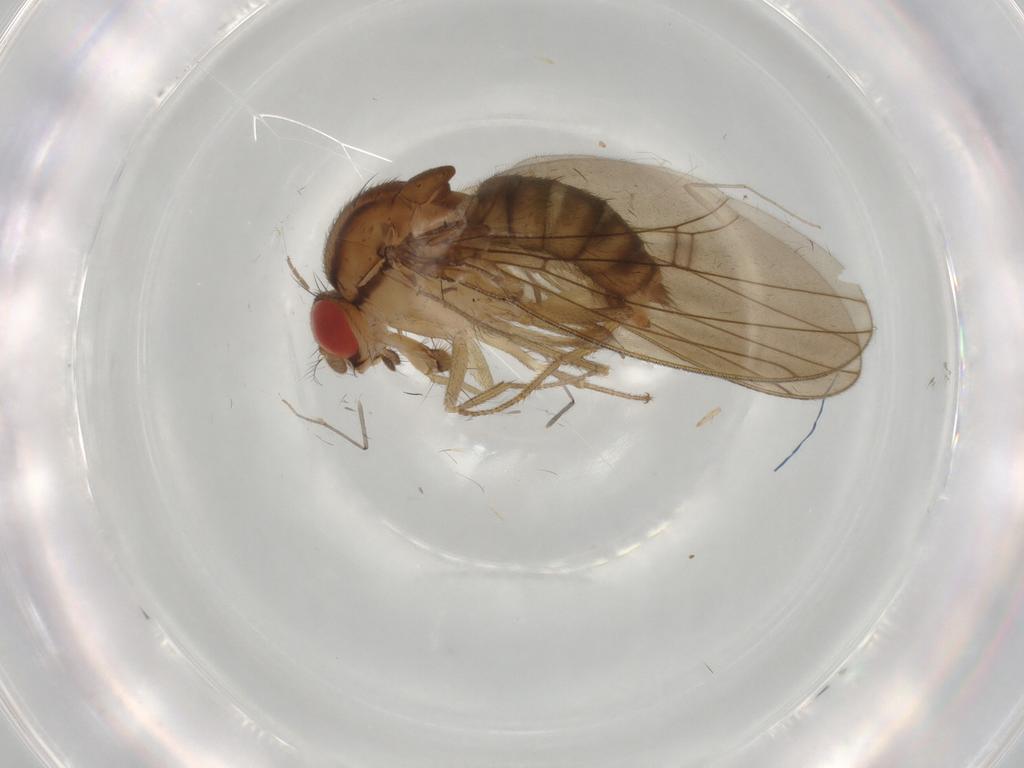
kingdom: Animalia
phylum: Arthropoda
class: Insecta
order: Diptera
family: Drosophilidae
